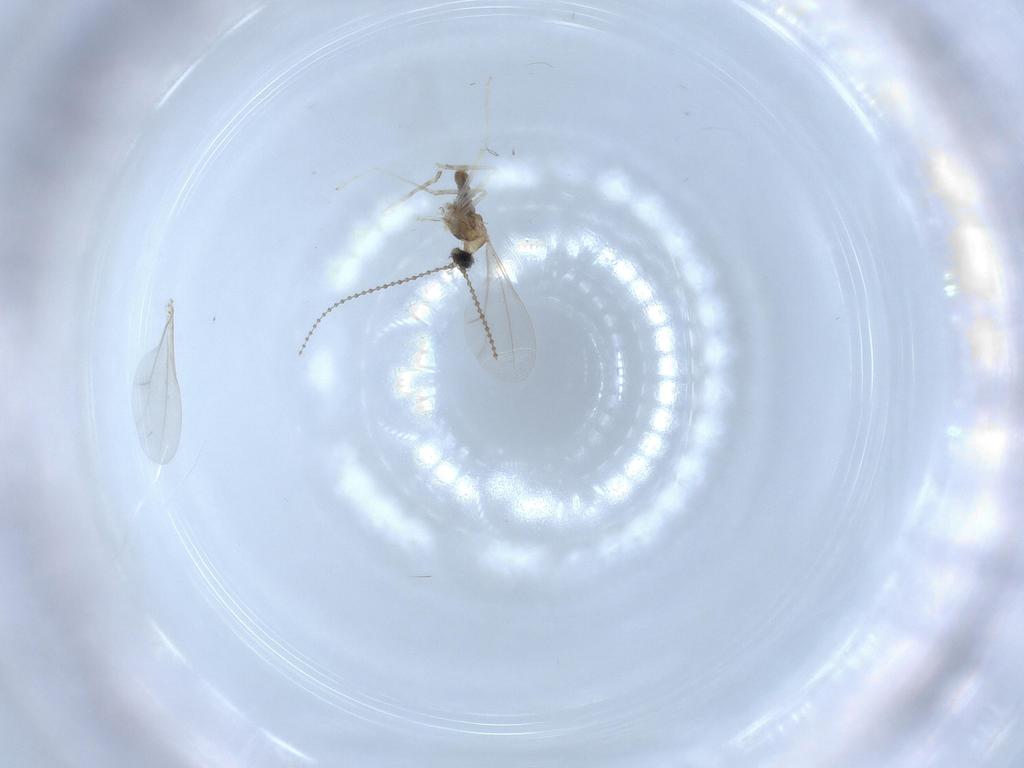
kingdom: Animalia
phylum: Arthropoda
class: Insecta
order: Diptera
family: Cecidomyiidae
